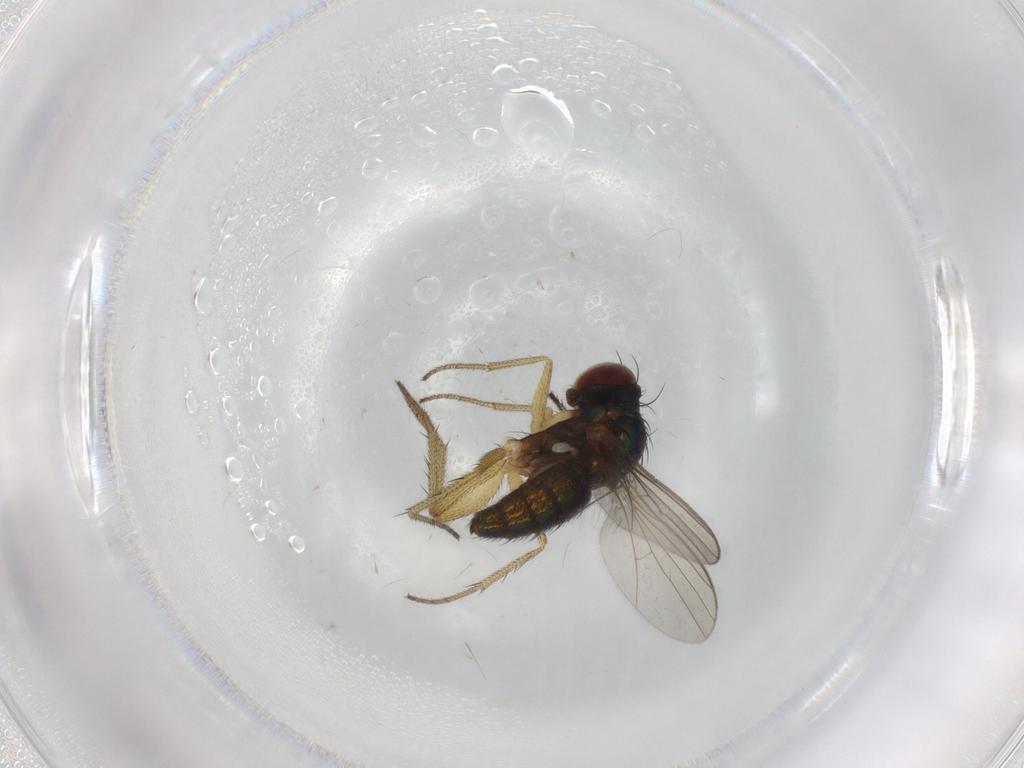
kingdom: Animalia
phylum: Arthropoda
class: Insecta
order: Diptera
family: Dolichopodidae
